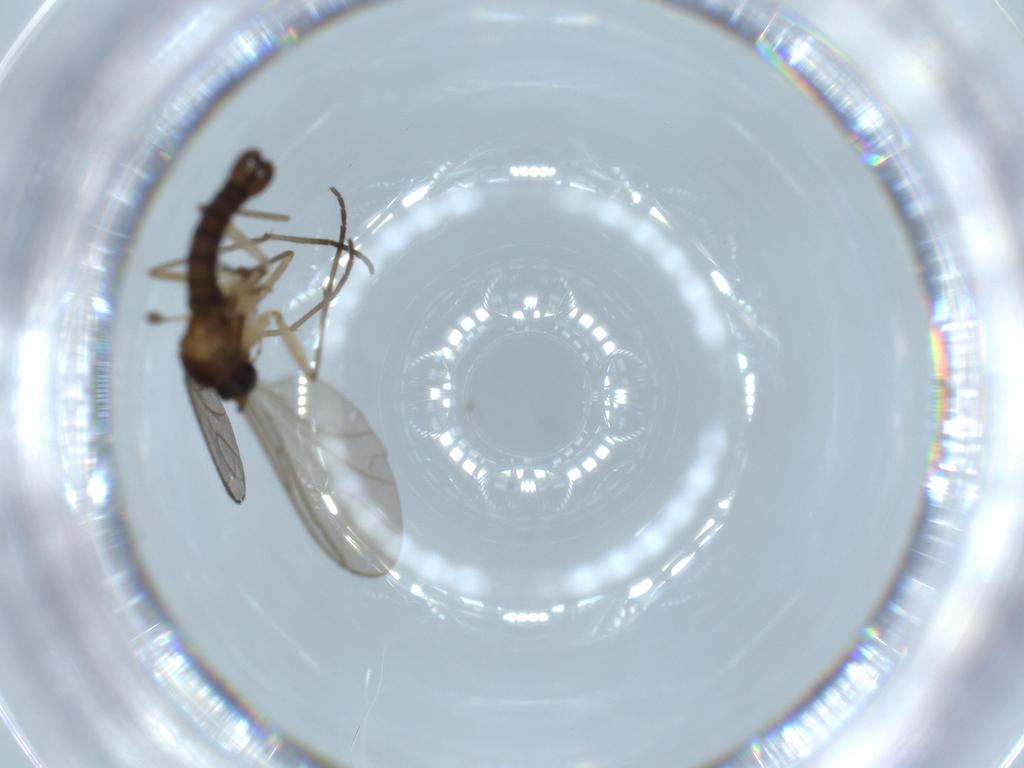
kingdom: Animalia
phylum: Arthropoda
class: Insecta
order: Diptera
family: Sciaridae
